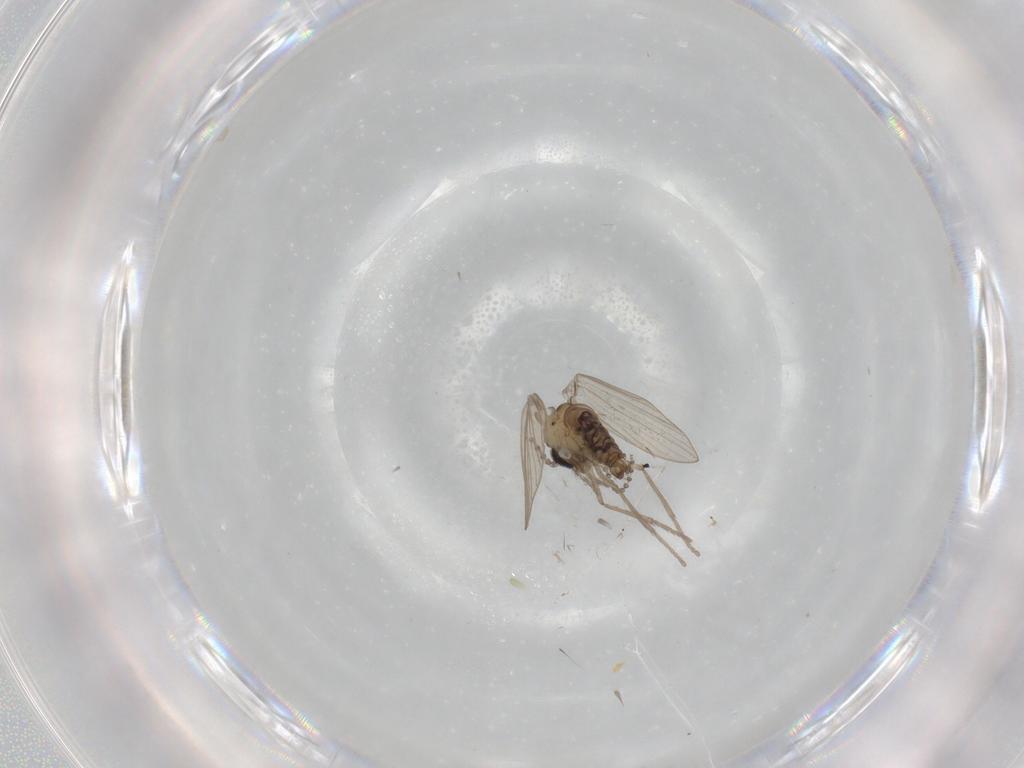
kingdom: Animalia
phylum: Arthropoda
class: Insecta
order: Diptera
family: Psychodidae
